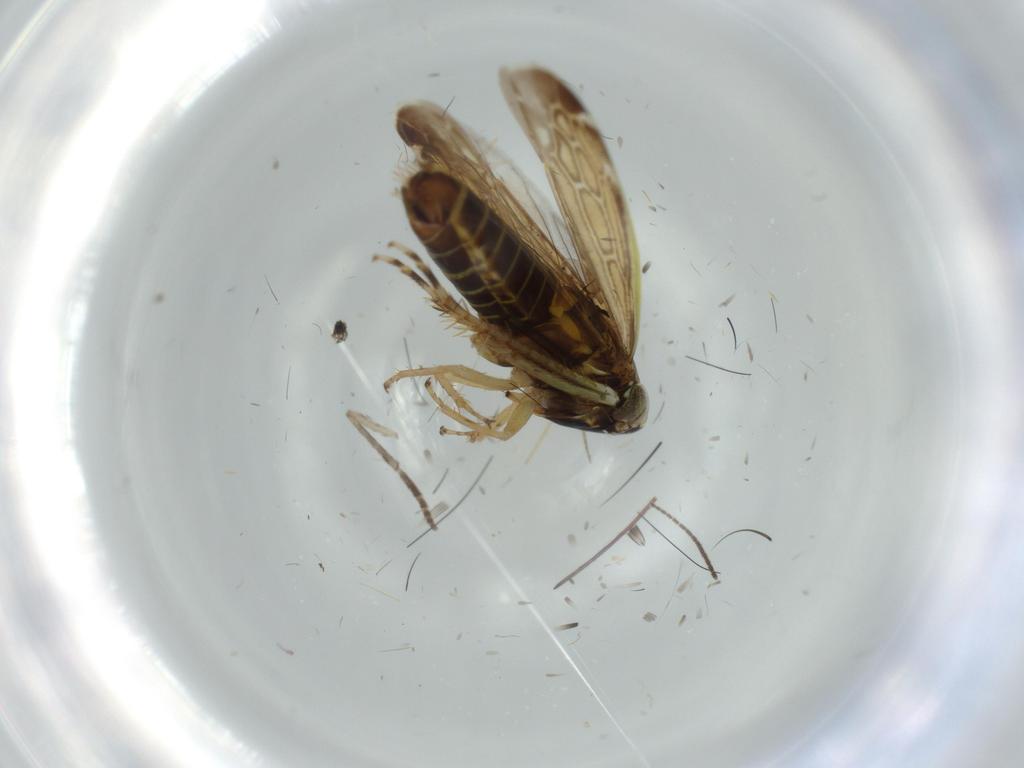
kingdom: Animalia
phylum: Arthropoda
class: Insecta
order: Hemiptera
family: Cicadellidae
